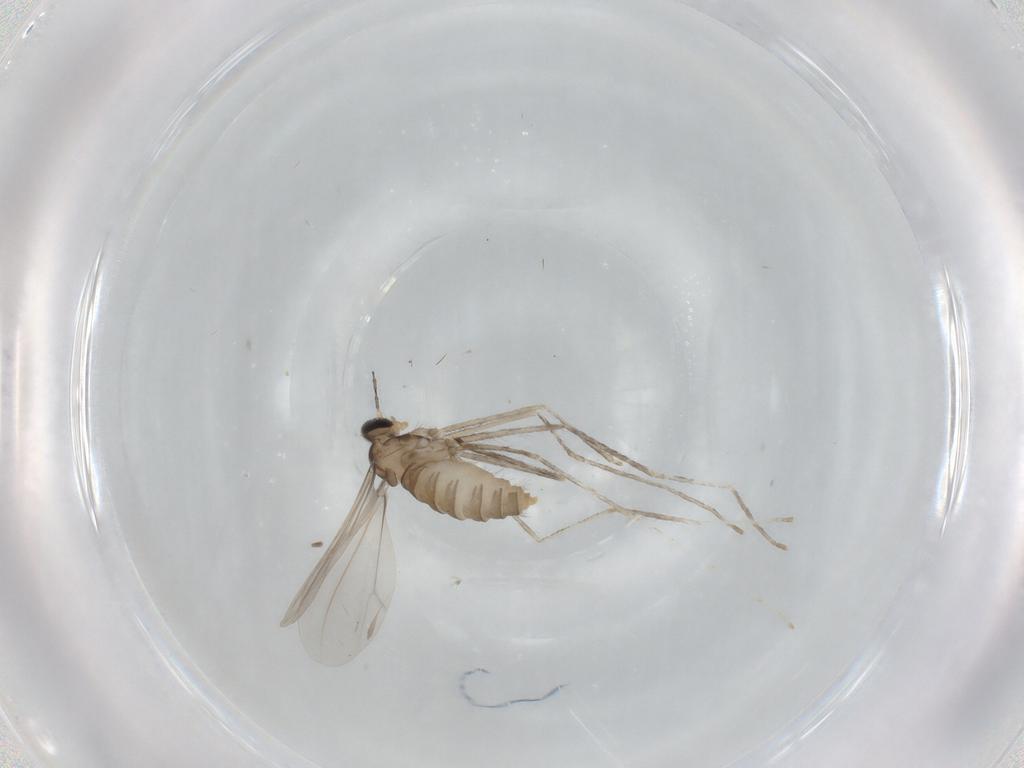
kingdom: Animalia
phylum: Arthropoda
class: Insecta
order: Diptera
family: Cecidomyiidae
